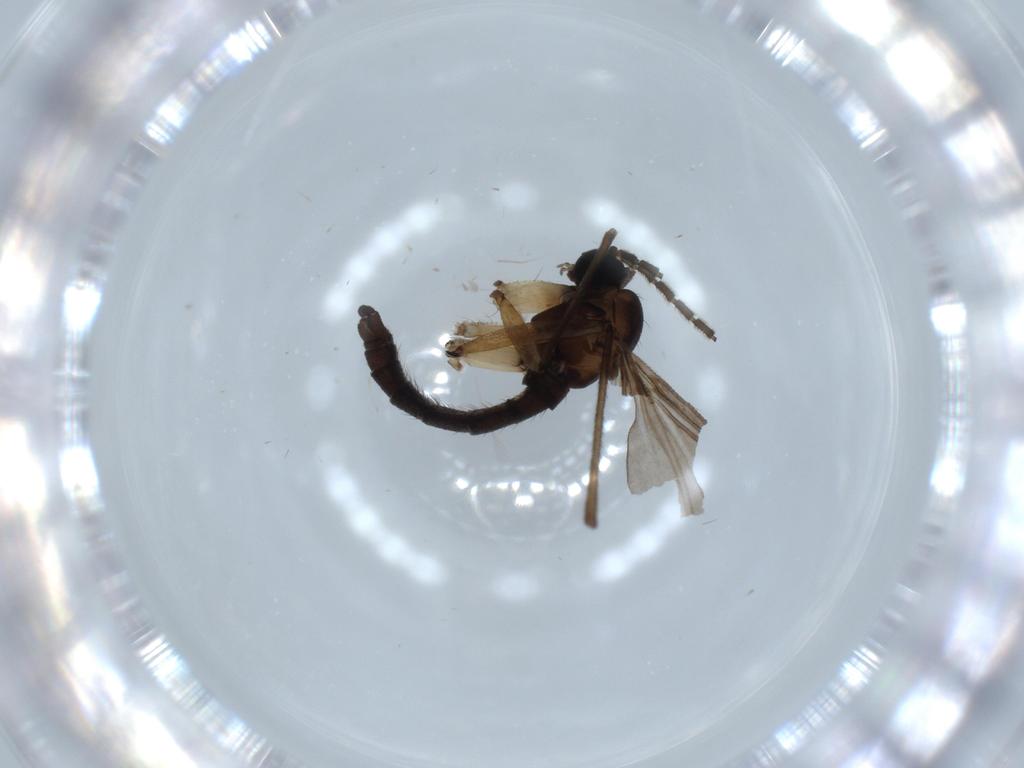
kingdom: Animalia
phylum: Arthropoda
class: Insecta
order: Diptera
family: Sciaridae
